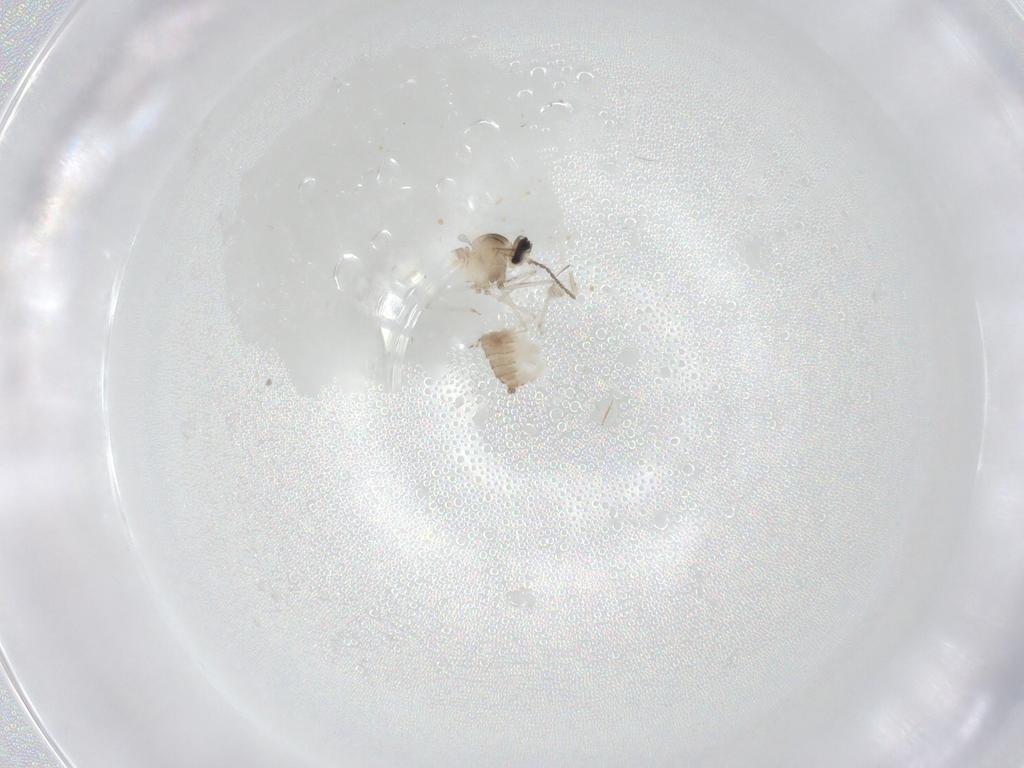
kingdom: Animalia
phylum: Arthropoda
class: Insecta
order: Diptera
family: Cecidomyiidae
